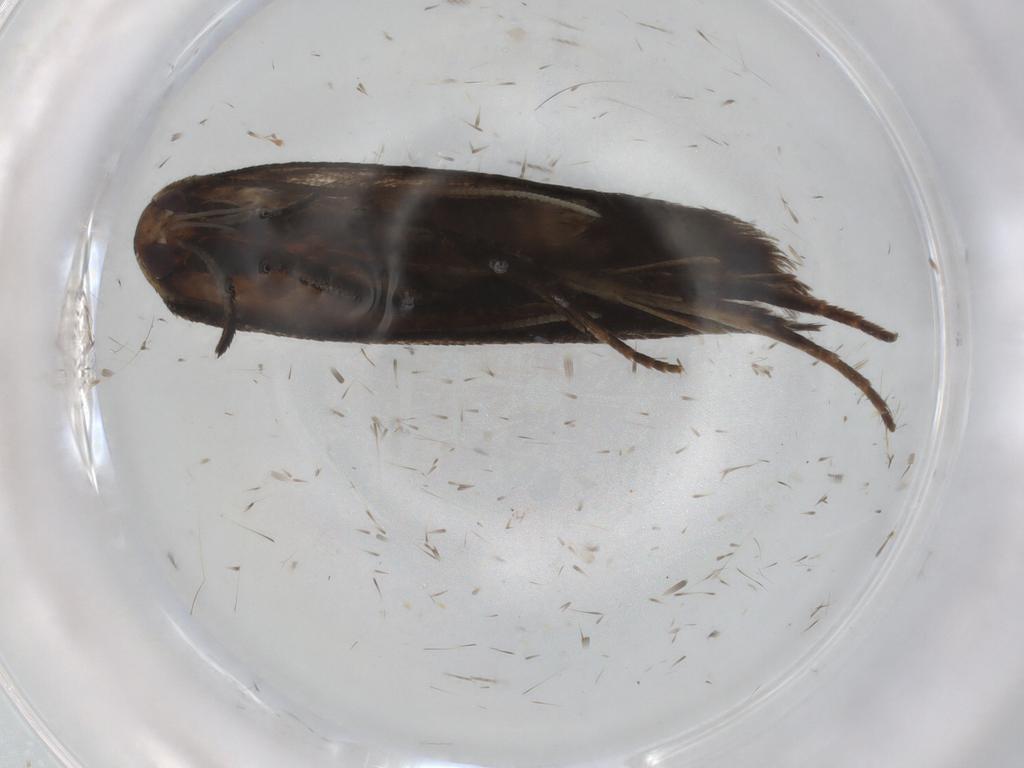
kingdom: Animalia
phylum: Arthropoda
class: Insecta
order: Lepidoptera
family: Cosmopterigidae
